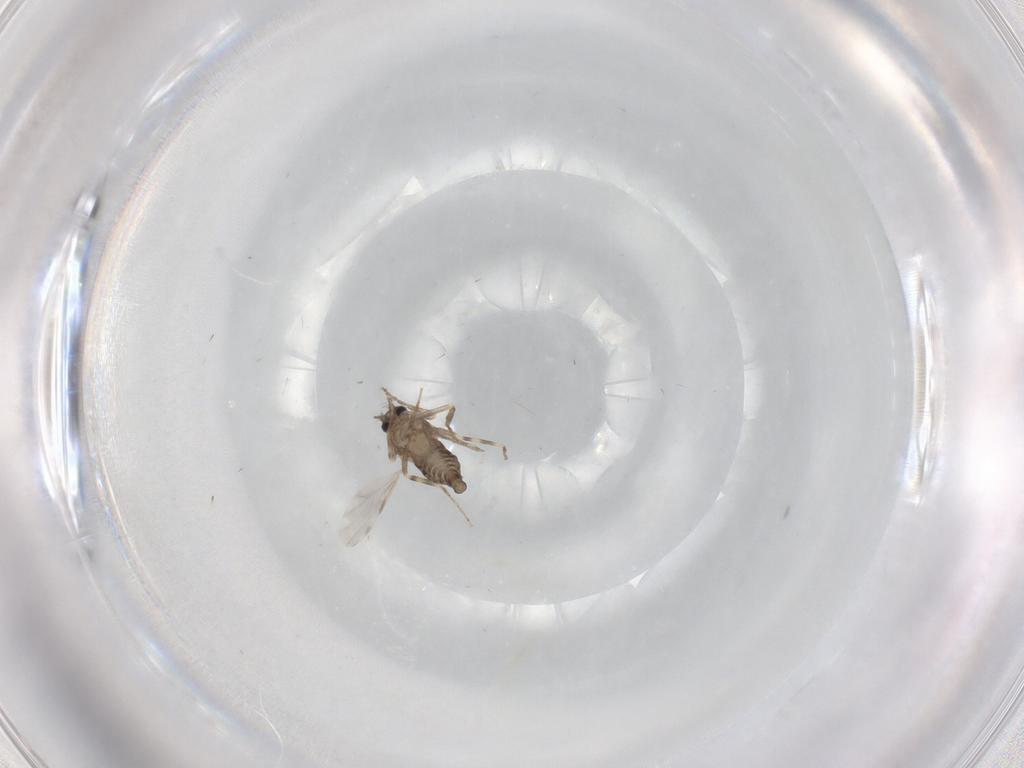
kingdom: Animalia
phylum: Arthropoda
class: Insecta
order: Diptera
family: Ceratopogonidae
